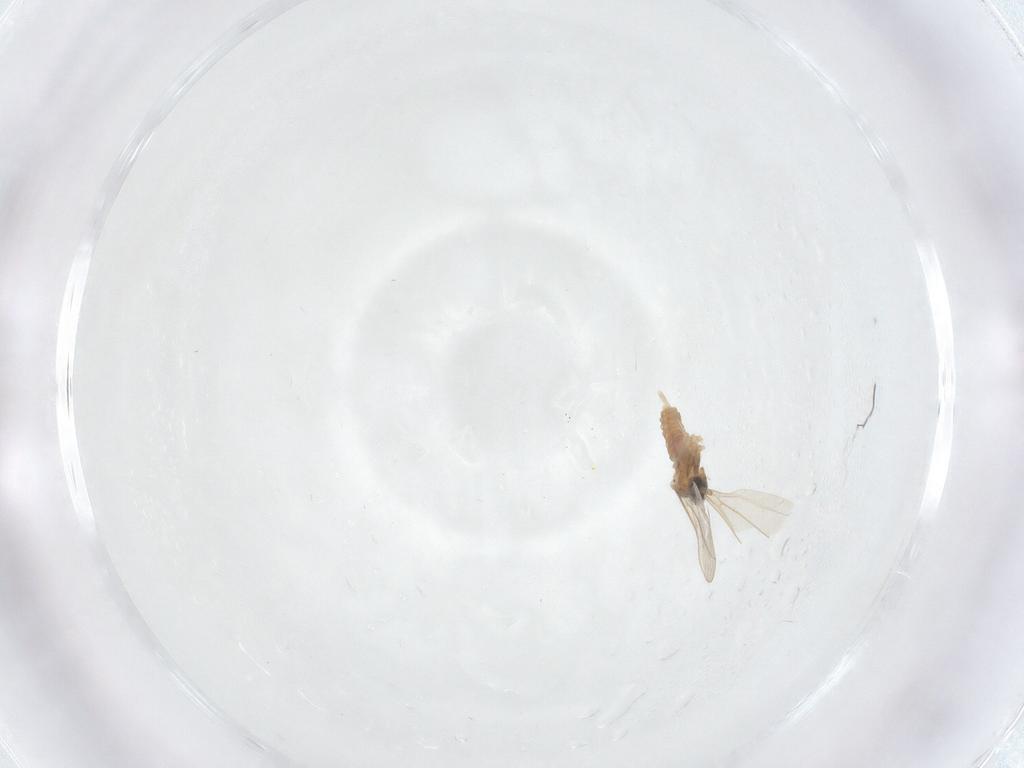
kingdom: Animalia
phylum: Arthropoda
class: Insecta
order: Diptera
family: Cecidomyiidae
